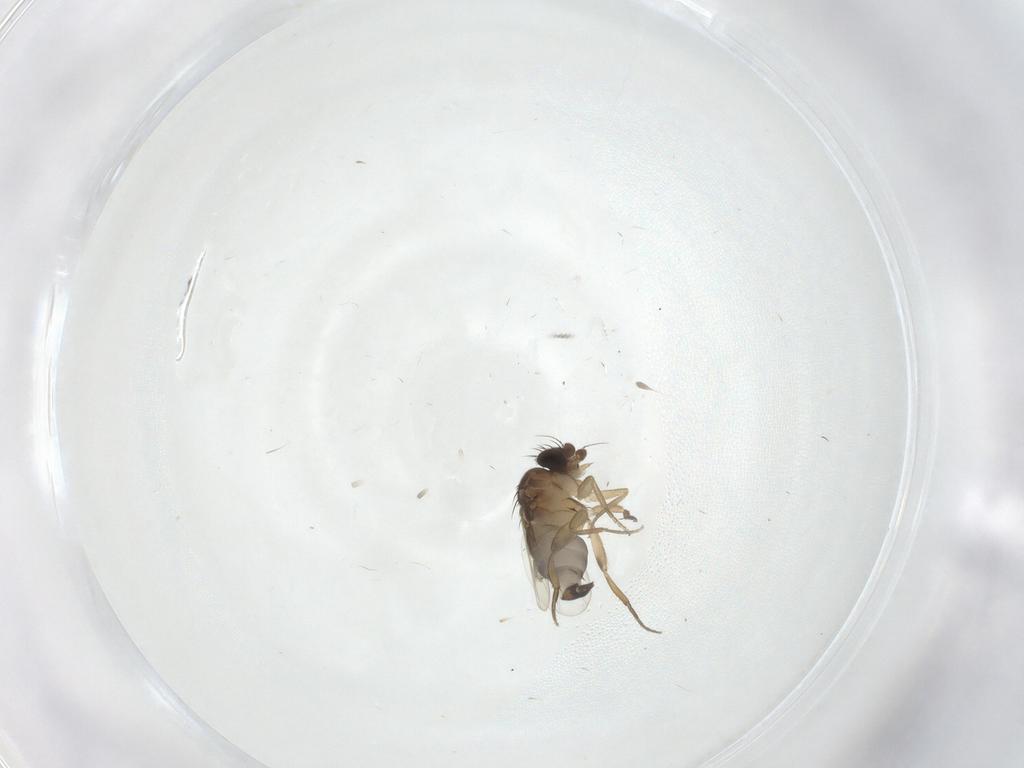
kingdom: Animalia
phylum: Arthropoda
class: Insecta
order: Diptera
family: Phoridae
